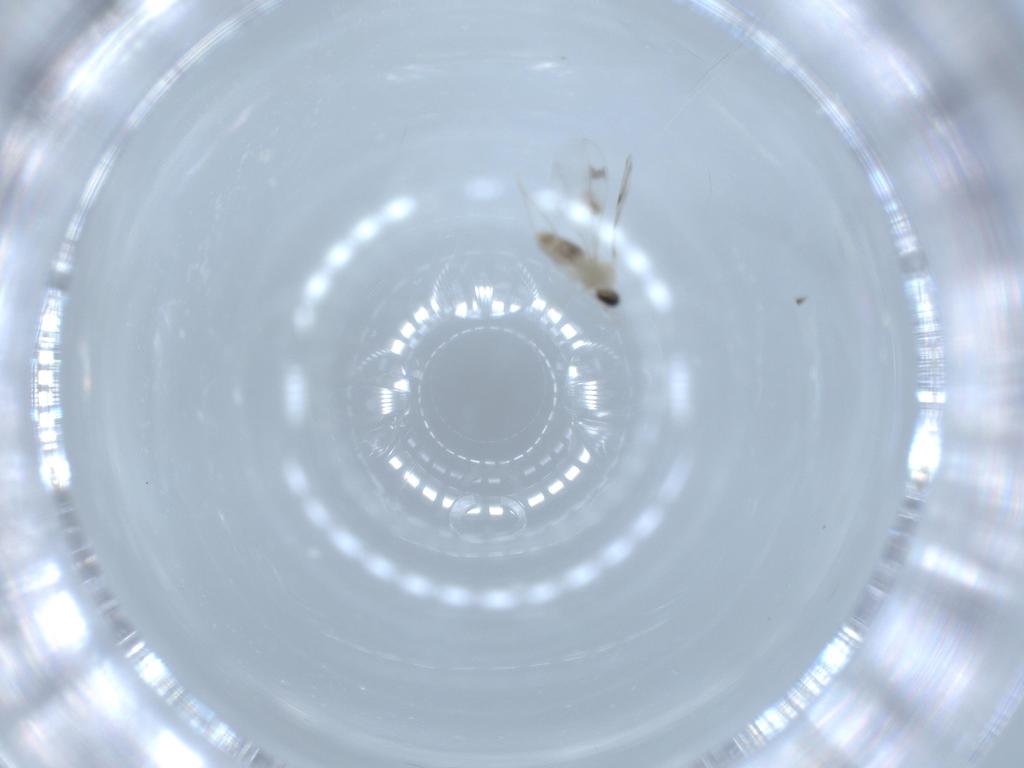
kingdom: Animalia
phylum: Arthropoda
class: Insecta
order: Diptera
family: Cecidomyiidae
